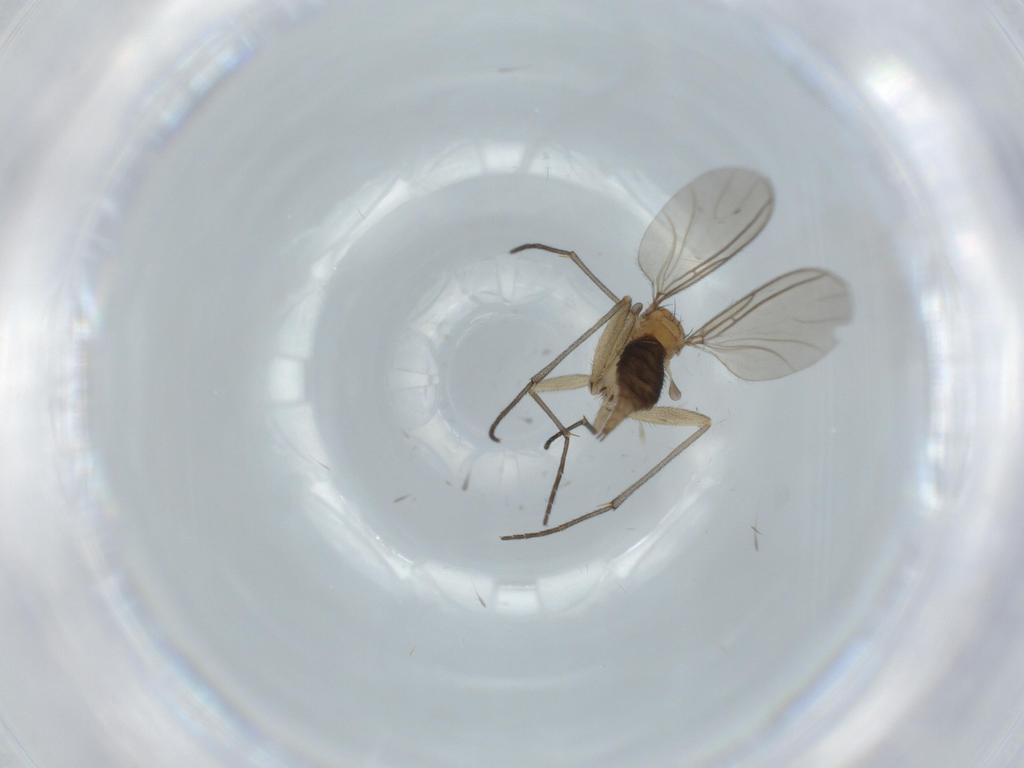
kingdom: Animalia
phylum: Arthropoda
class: Insecta
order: Diptera
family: Sciaridae
